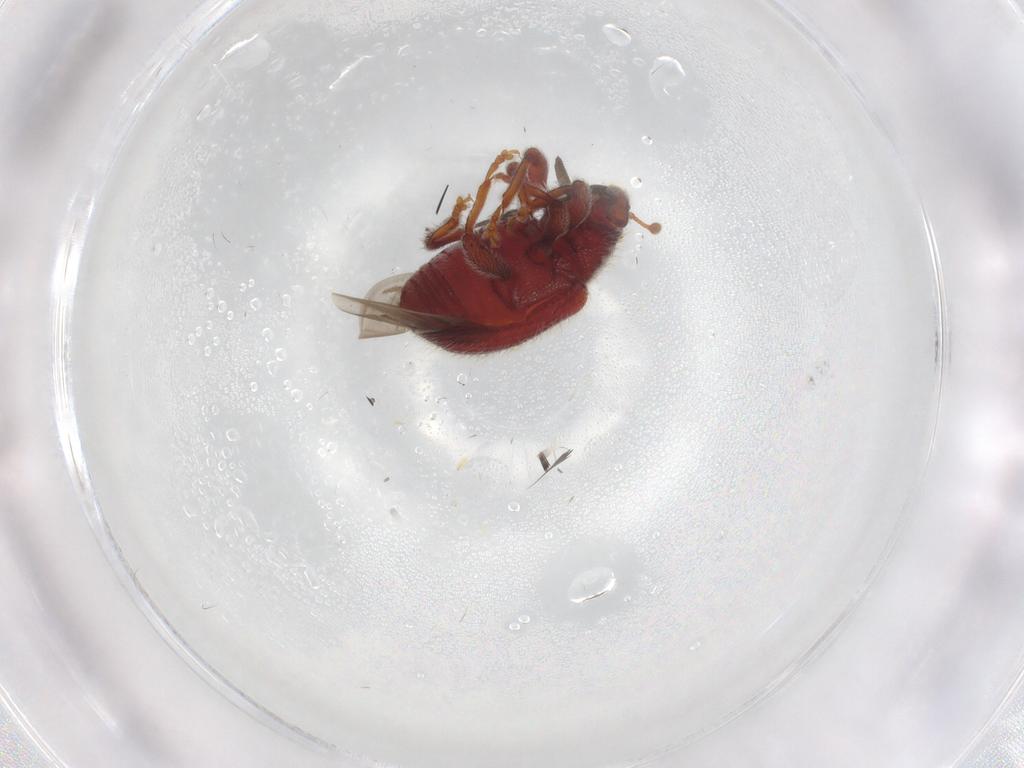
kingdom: Animalia
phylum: Arthropoda
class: Insecta
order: Coleoptera
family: Curculionidae
